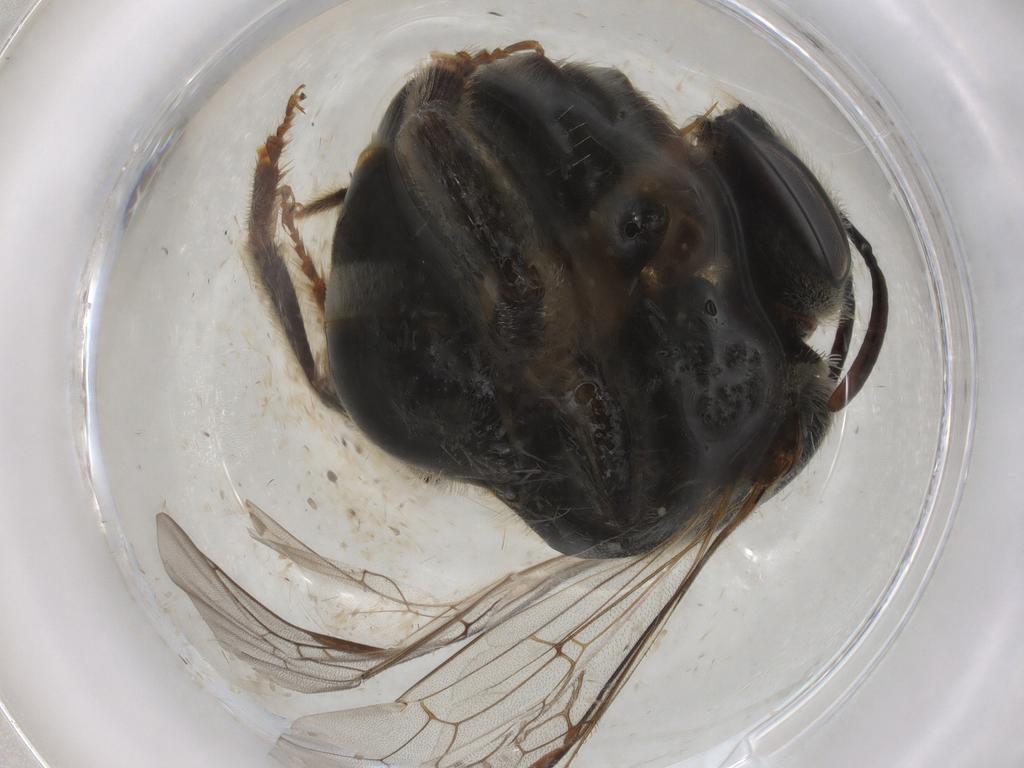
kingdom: Animalia
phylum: Arthropoda
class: Insecta
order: Hymenoptera
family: Halictidae
